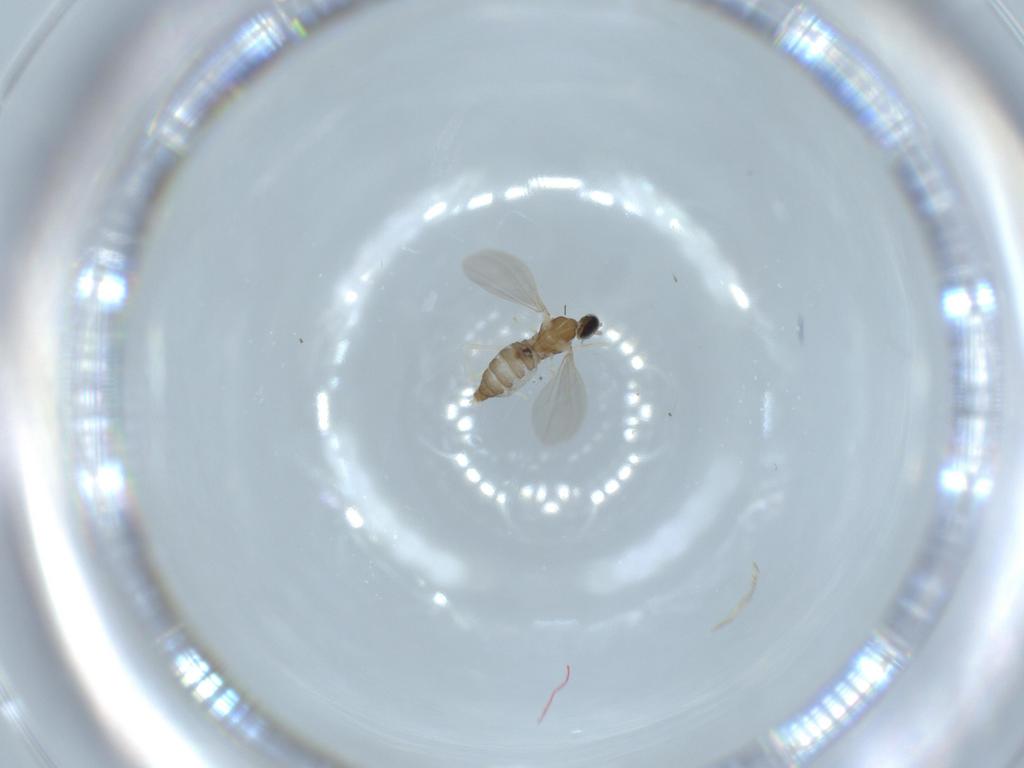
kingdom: Animalia
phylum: Arthropoda
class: Insecta
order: Diptera
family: Cecidomyiidae
